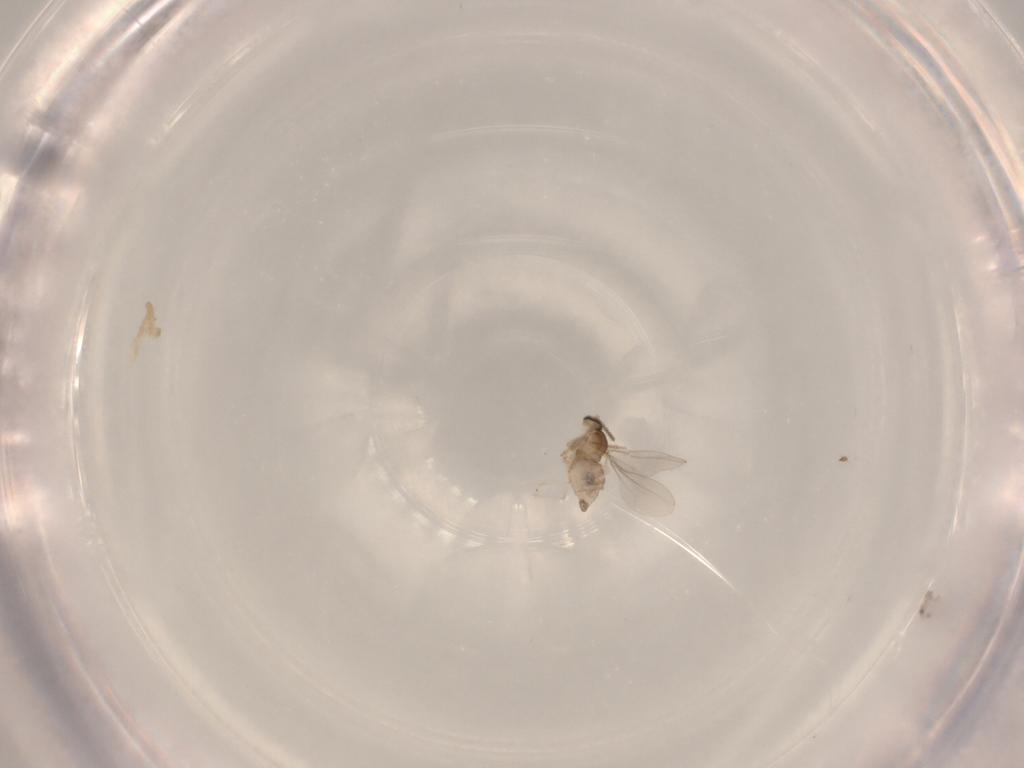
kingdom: Animalia
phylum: Arthropoda
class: Insecta
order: Diptera
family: Cecidomyiidae
